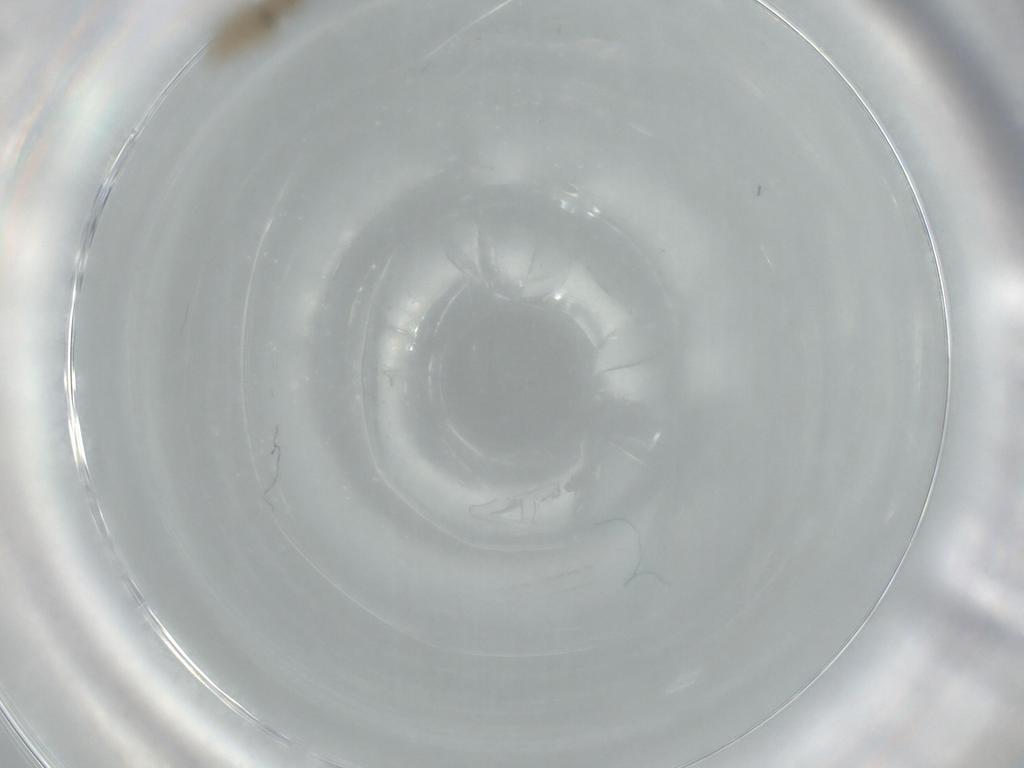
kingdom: Animalia
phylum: Arthropoda
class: Insecta
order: Diptera
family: Cecidomyiidae
